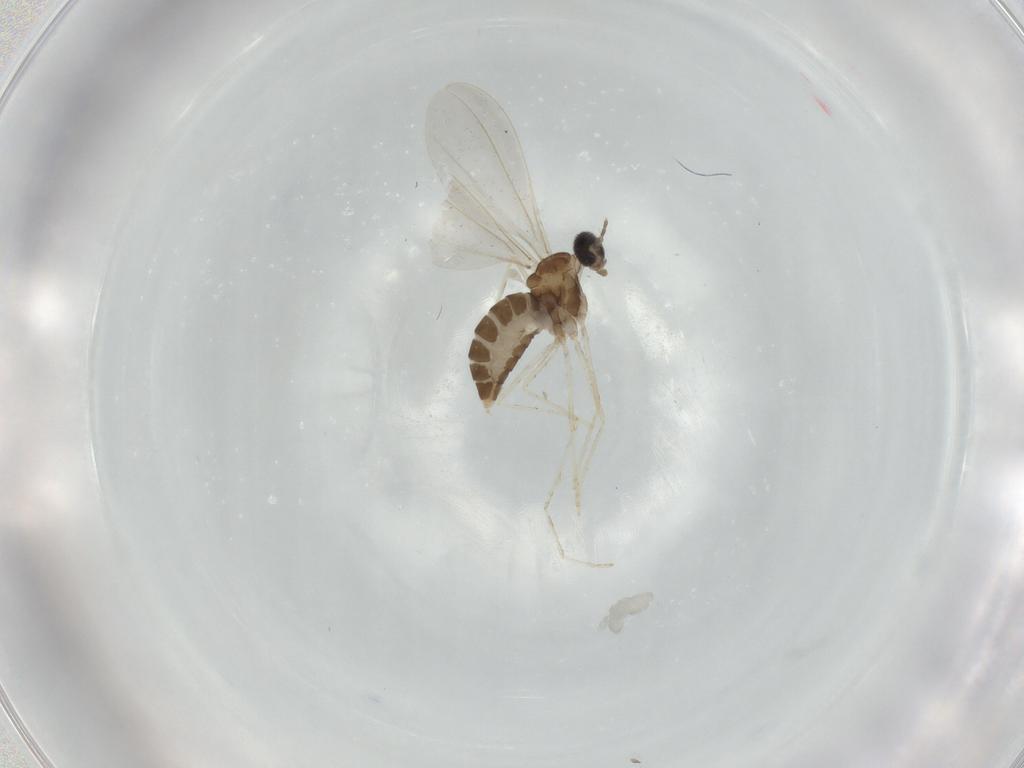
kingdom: Animalia
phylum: Arthropoda
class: Insecta
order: Diptera
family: Cecidomyiidae
